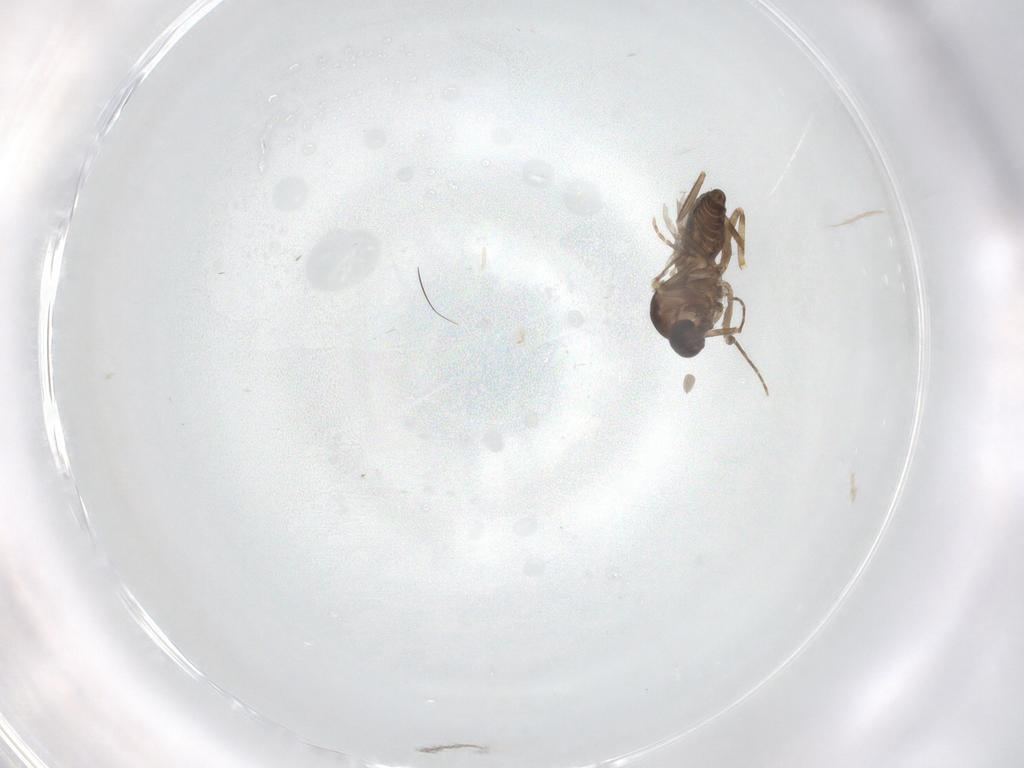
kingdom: Animalia
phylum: Arthropoda
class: Insecta
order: Diptera
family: Ceratopogonidae
